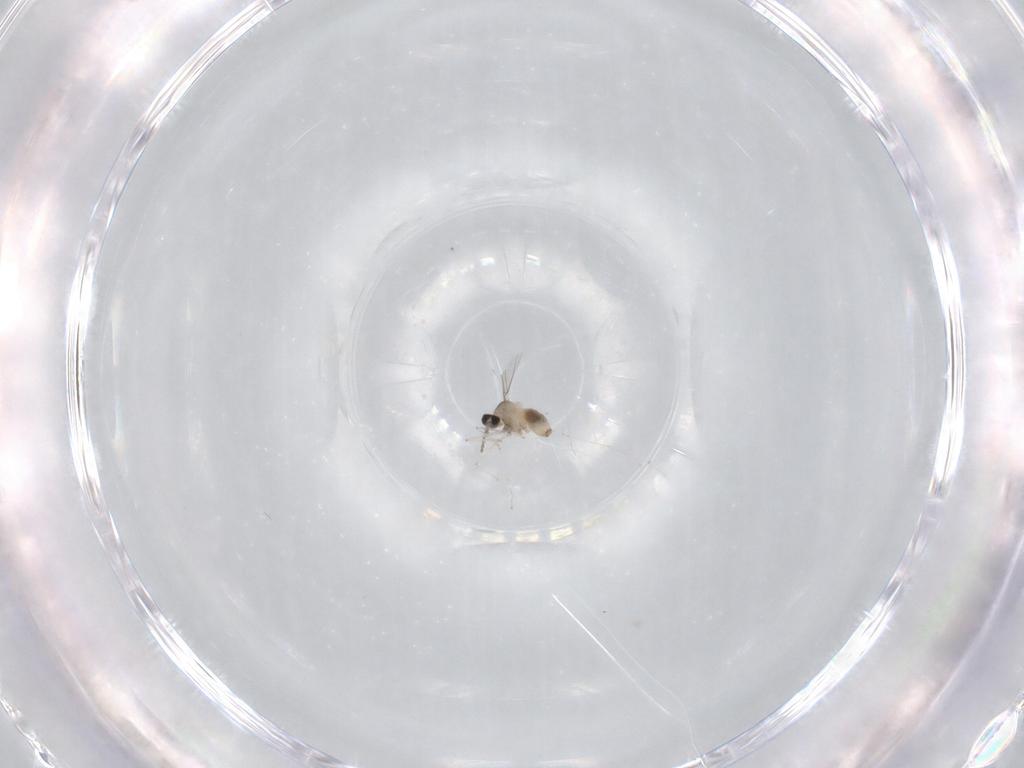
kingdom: Animalia
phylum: Arthropoda
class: Insecta
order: Diptera
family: Cecidomyiidae
